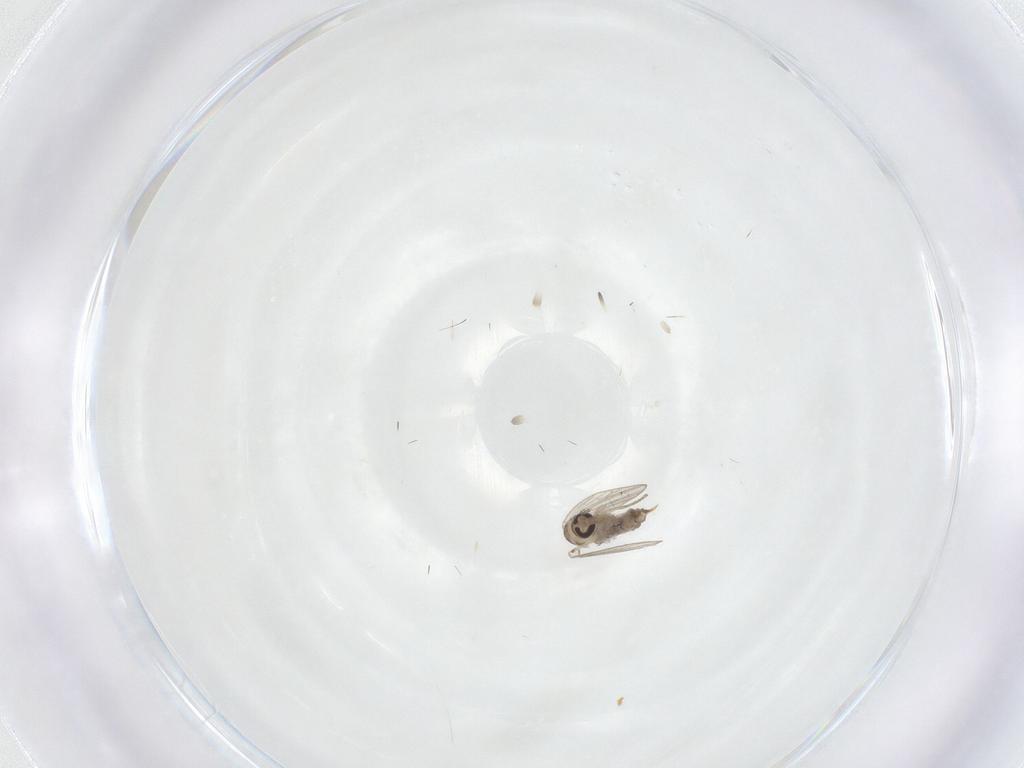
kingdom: Animalia
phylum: Arthropoda
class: Insecta
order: Diptera
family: Psychodidae
